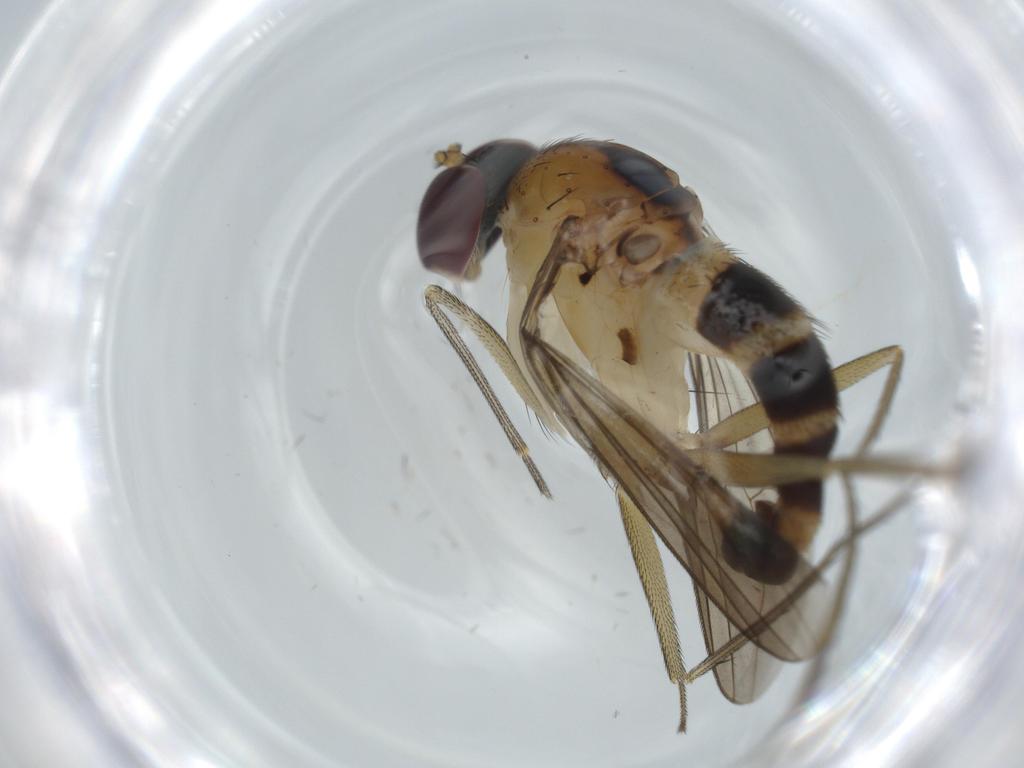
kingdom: Animalia
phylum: Arthropoda
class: Insecta
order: Diptera
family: Dolichopodidae
